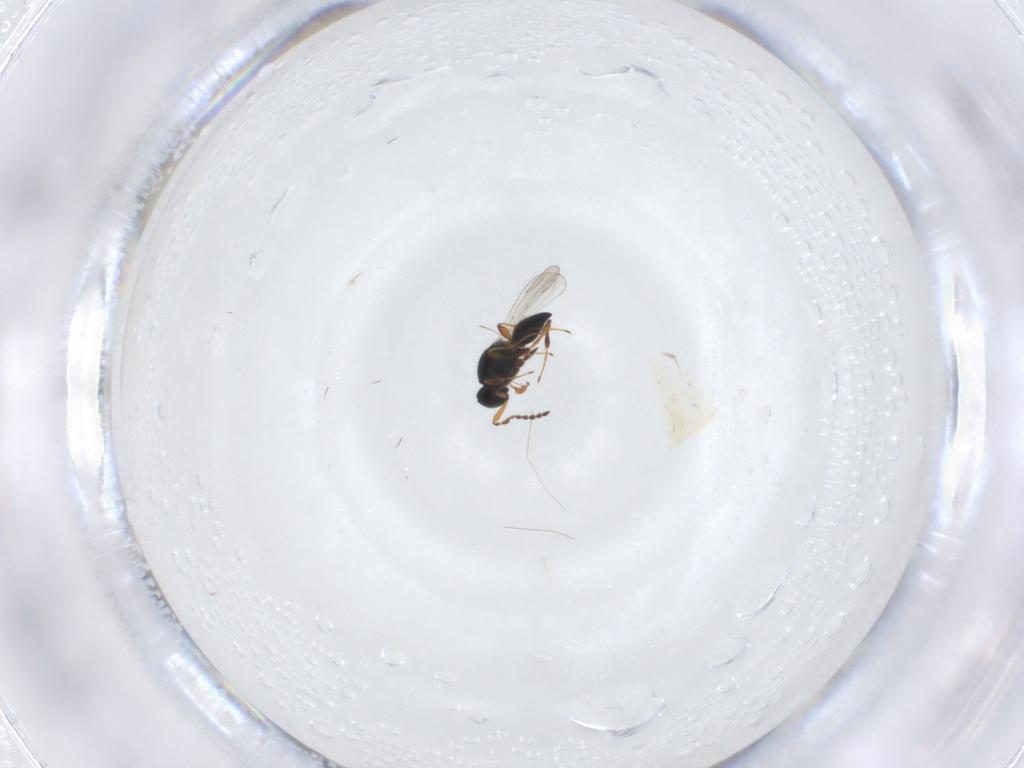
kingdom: Animalia
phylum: Arthropoda
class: Insecta
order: Hymenoptera
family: Platygastridae
